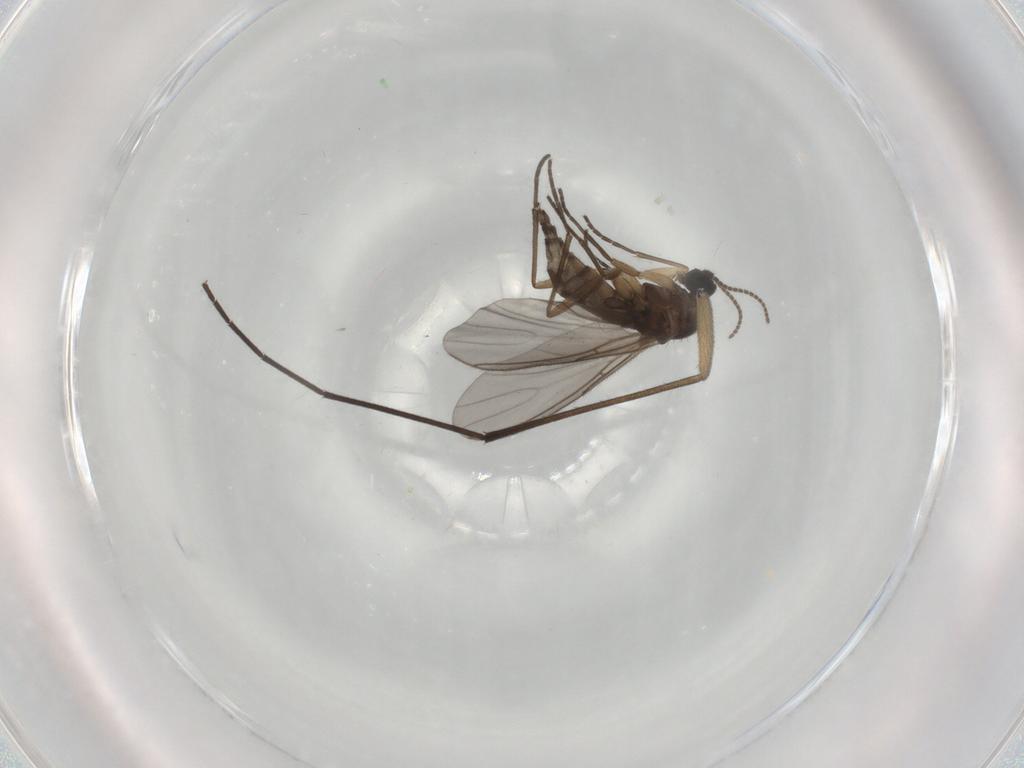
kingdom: Animalia
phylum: Arthropoda
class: Insecta
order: Diptera
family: Sciaridae
